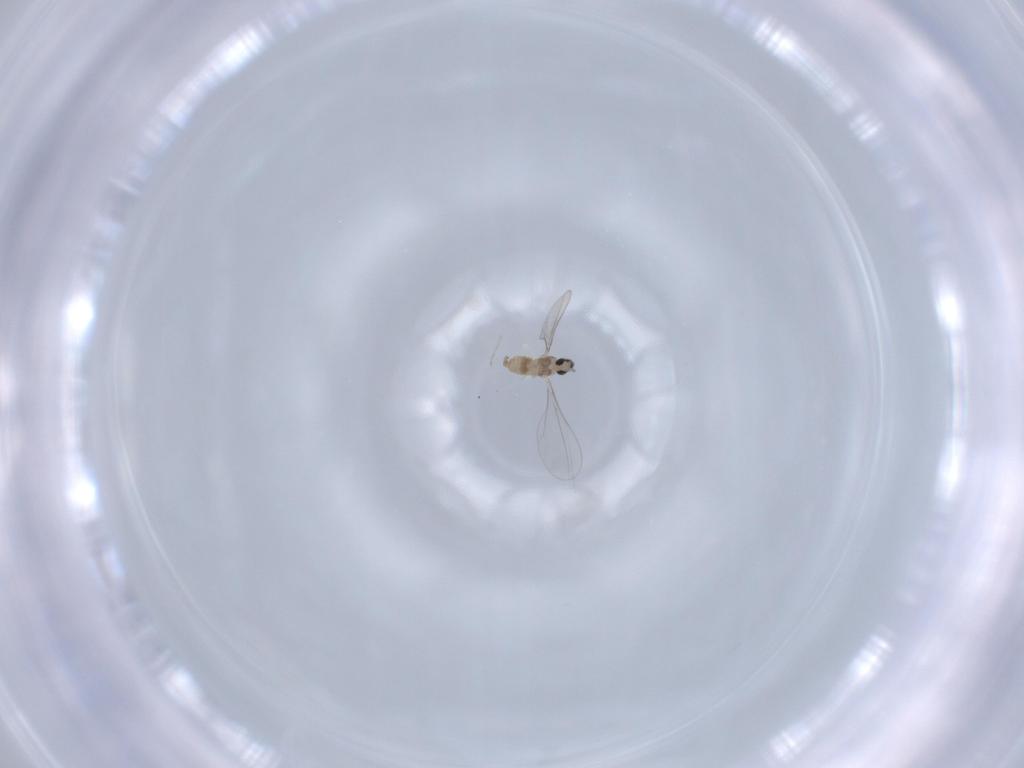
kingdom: Animalia
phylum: Arthropoda
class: Insecta
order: Diptera
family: Cecidomyiidae
